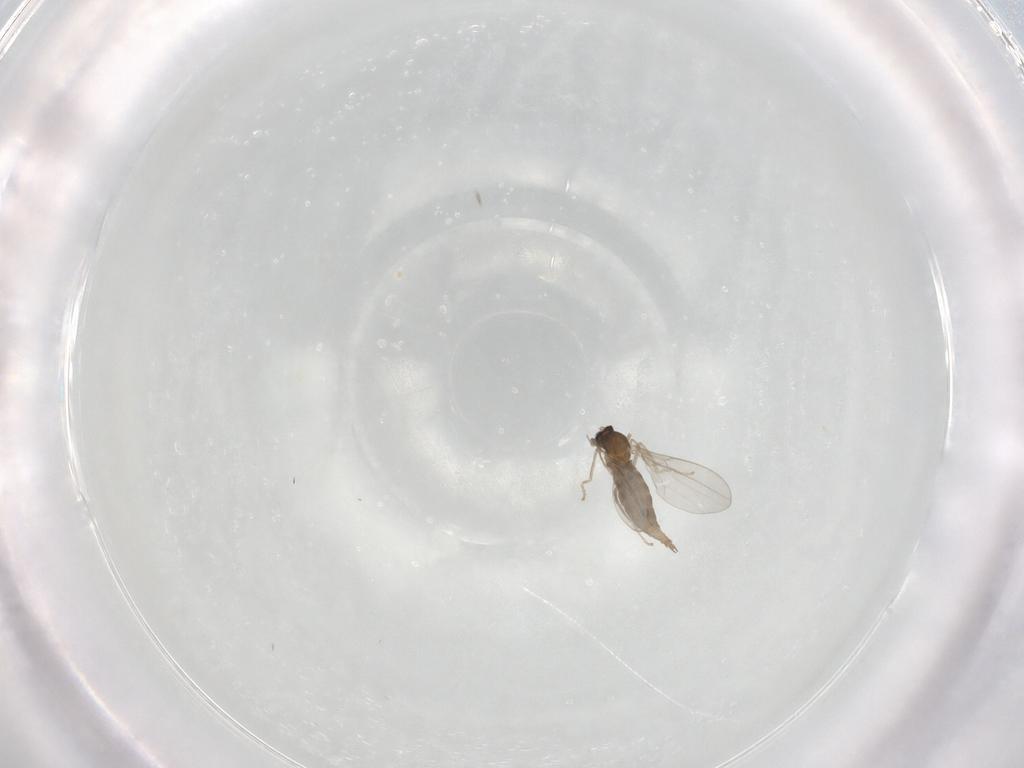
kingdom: Animalia
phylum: Arthropoda
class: Insecta
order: Diptera
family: Cecidomyiidae
